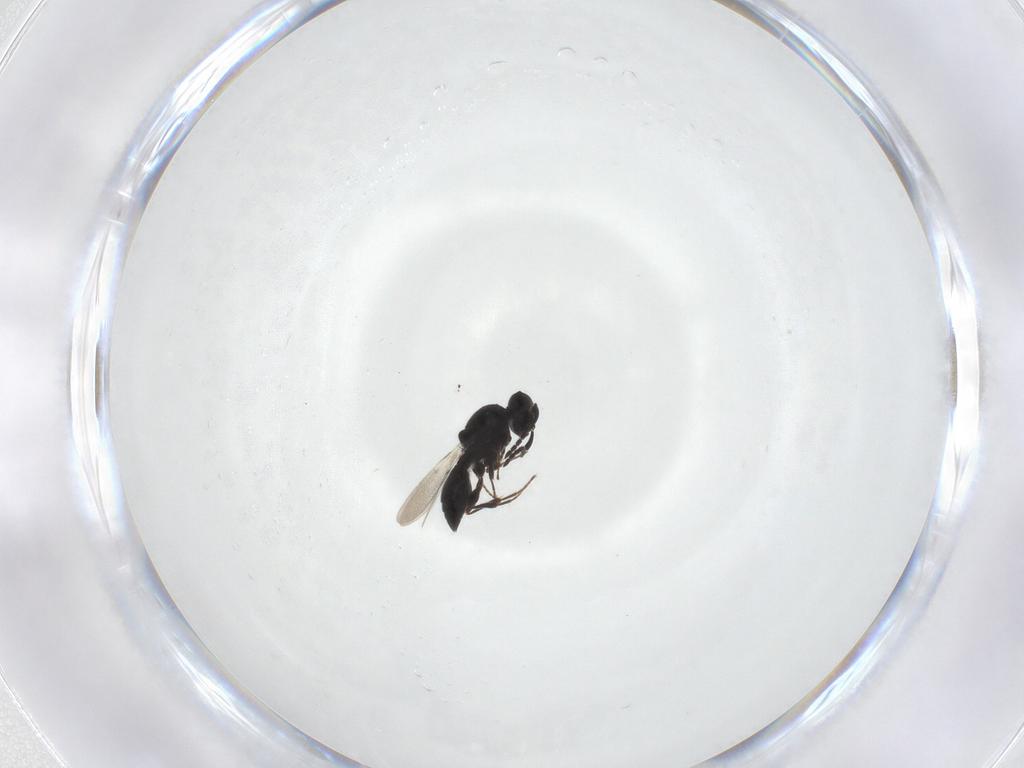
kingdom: Animalia
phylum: Arthropoda
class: Insecta
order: Hymenoptera
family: Platygastridae
